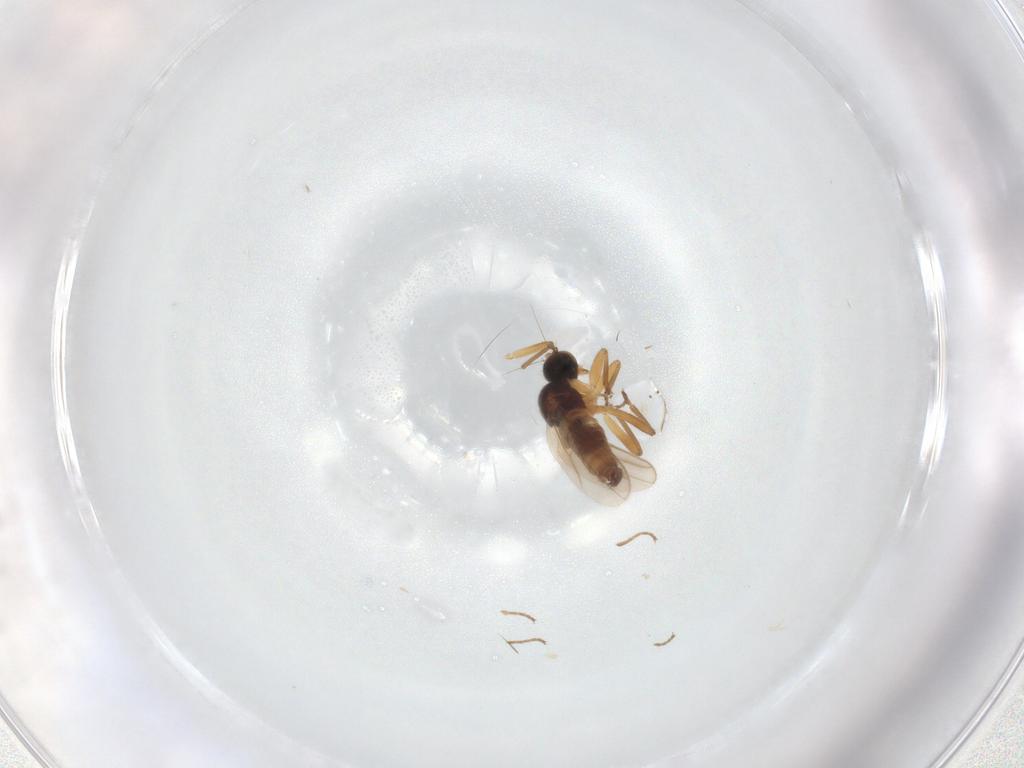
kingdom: Animalia
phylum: Arthropoda
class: Insecta
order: Diptera
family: Hybotidae
